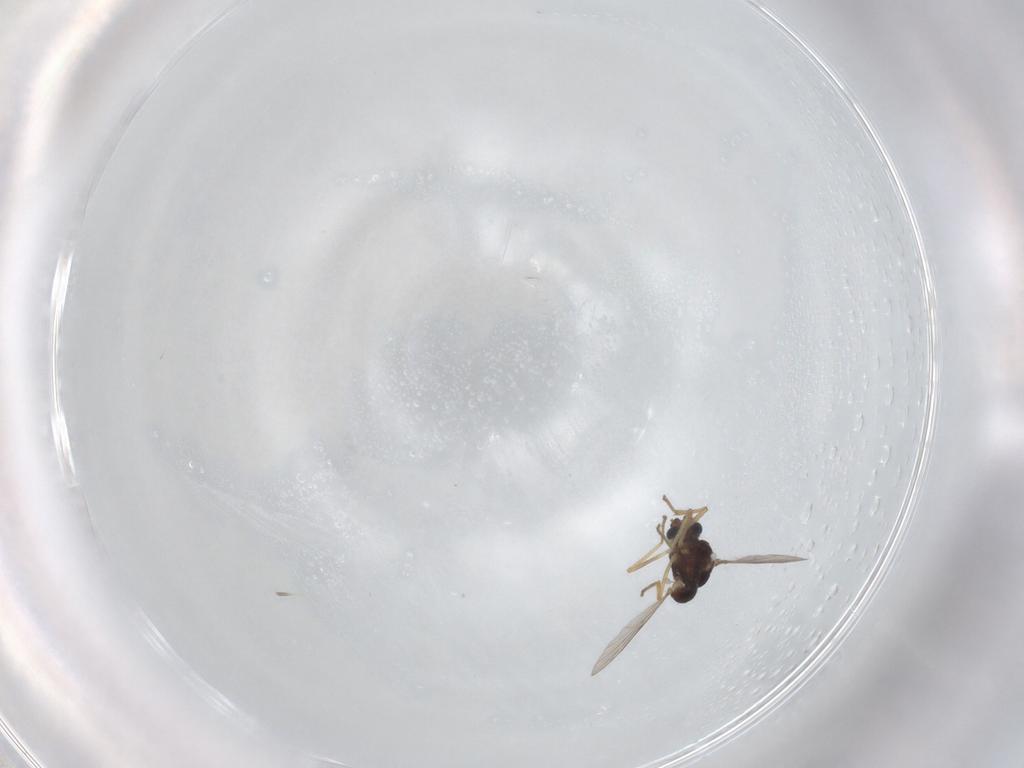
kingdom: Animalia
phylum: Arthropoda
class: Insecta
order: Diptera
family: Ceratopogonidae
